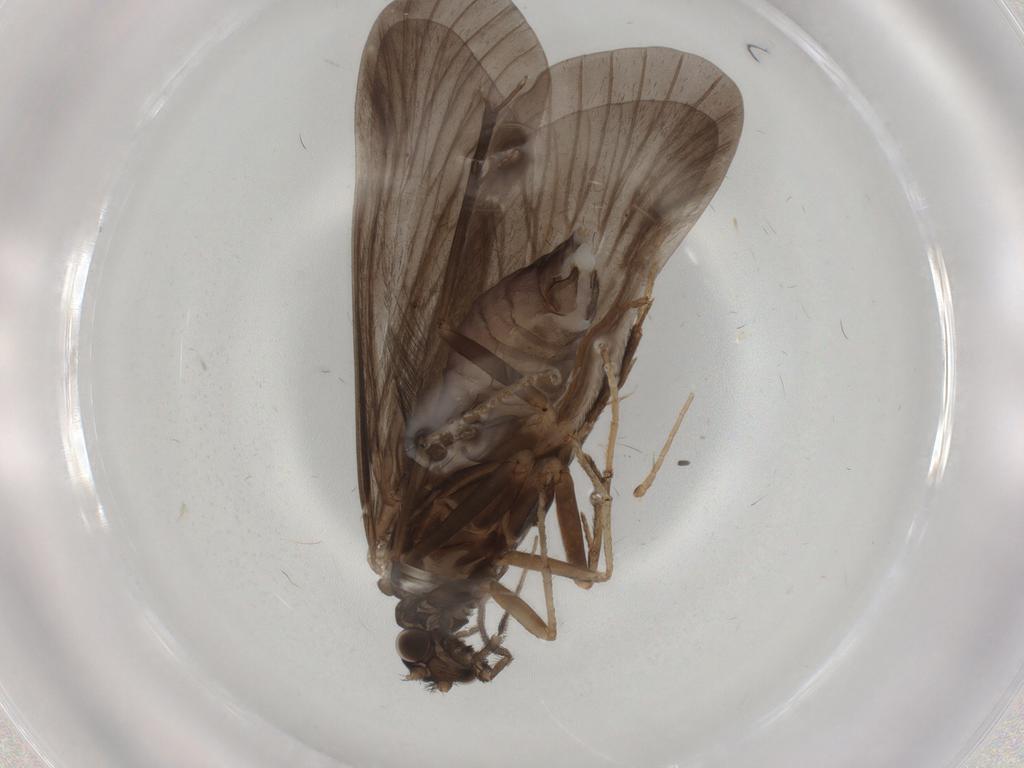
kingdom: Animalia
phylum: Arthropoda
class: Insecta
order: Trichoptera
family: Hydropsychidae
